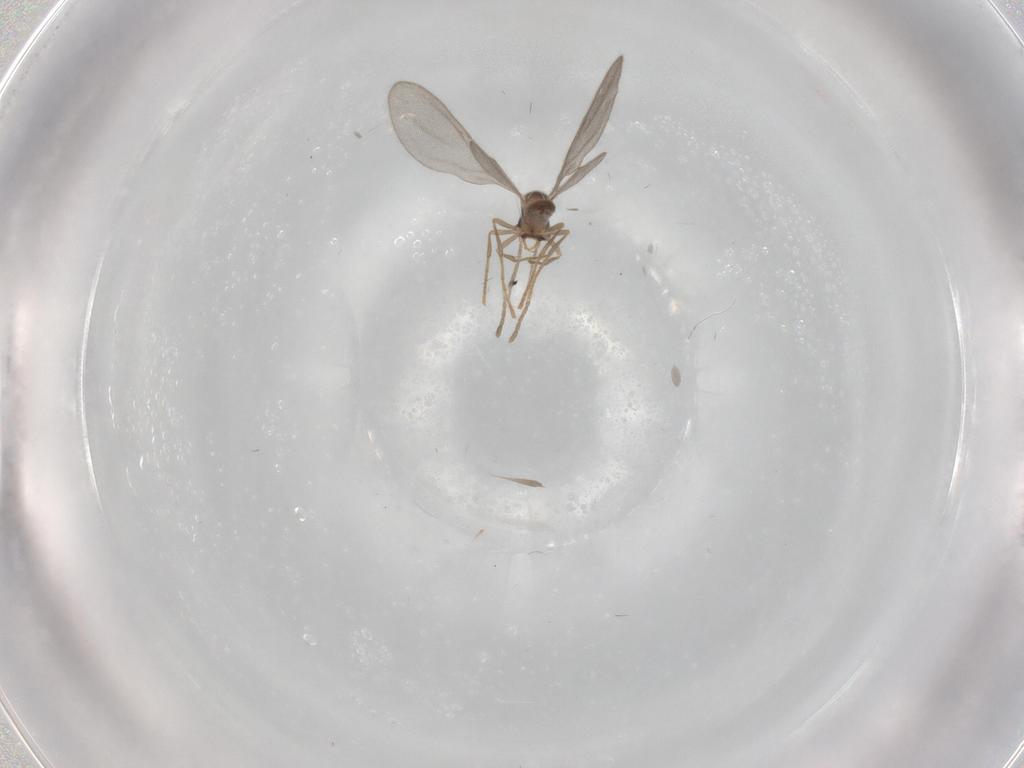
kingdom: Animalia
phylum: Arthropoda
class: Insecta
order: Hymenoptera
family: Formicidae
